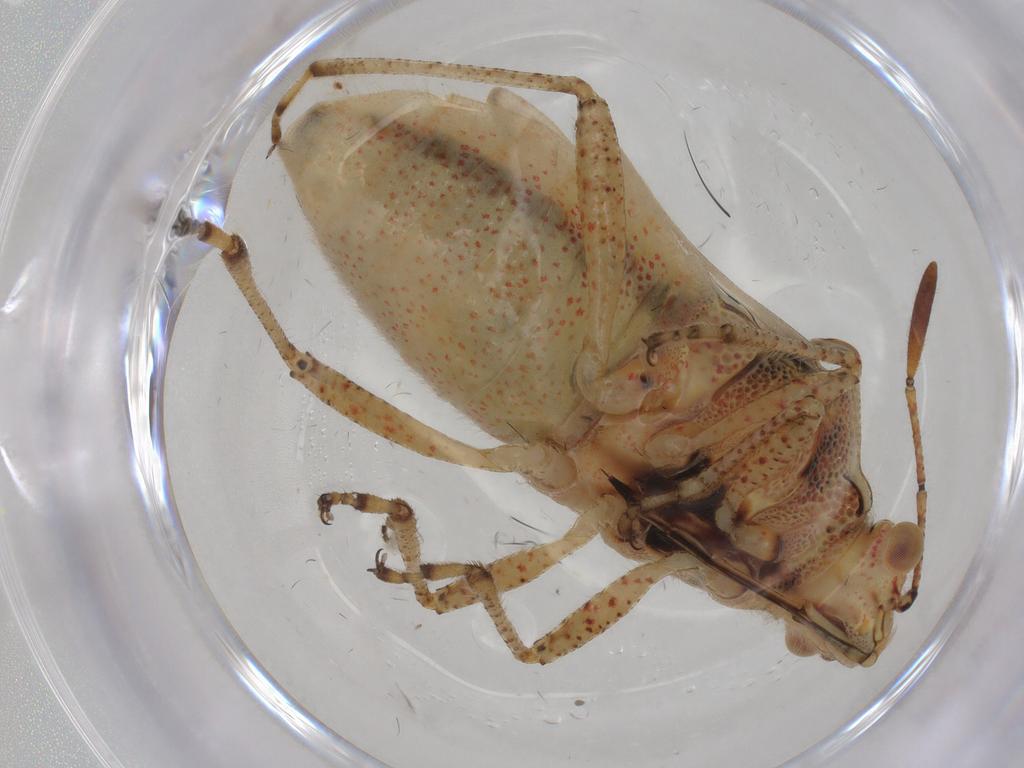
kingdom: Animalia
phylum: Arthropoda
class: Insecta
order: Hemiptera
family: Rhopalidae
